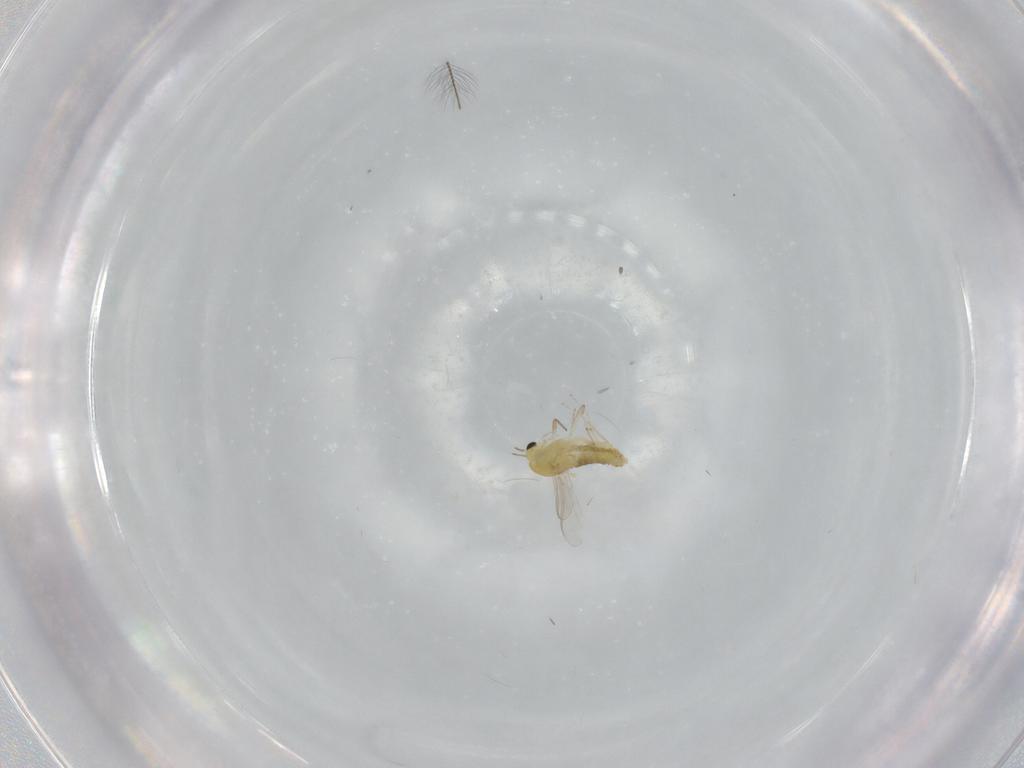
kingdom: Animalia
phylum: Arthropoda
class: Insecta
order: Diptera
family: Chironomidae
